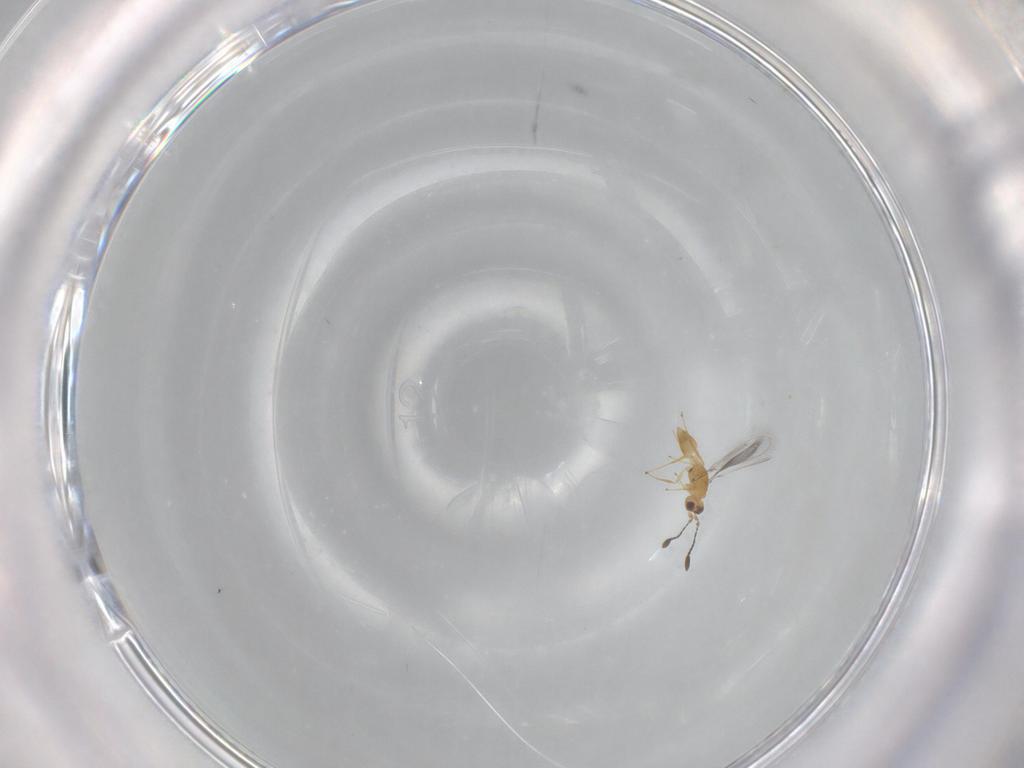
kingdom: Animalia
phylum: Arthropoda
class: Insecta
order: Hymenoptera
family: Mymaridae
